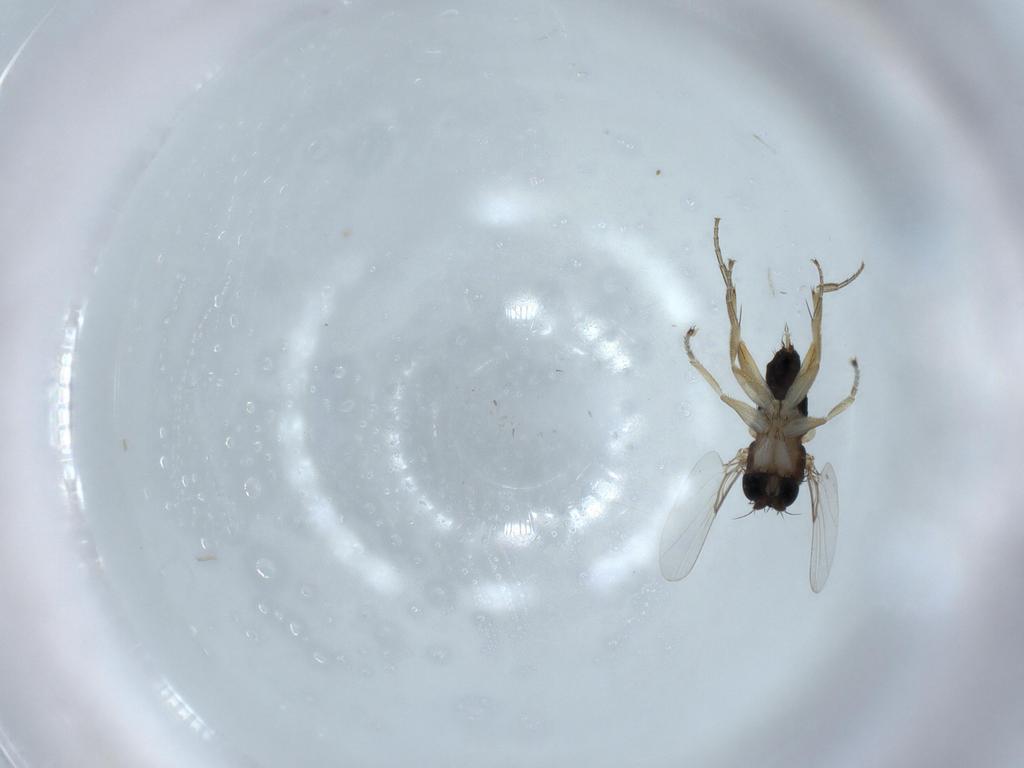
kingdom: Animalia
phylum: Arthropoda
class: Insecta
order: Diptera
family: Phoridae
